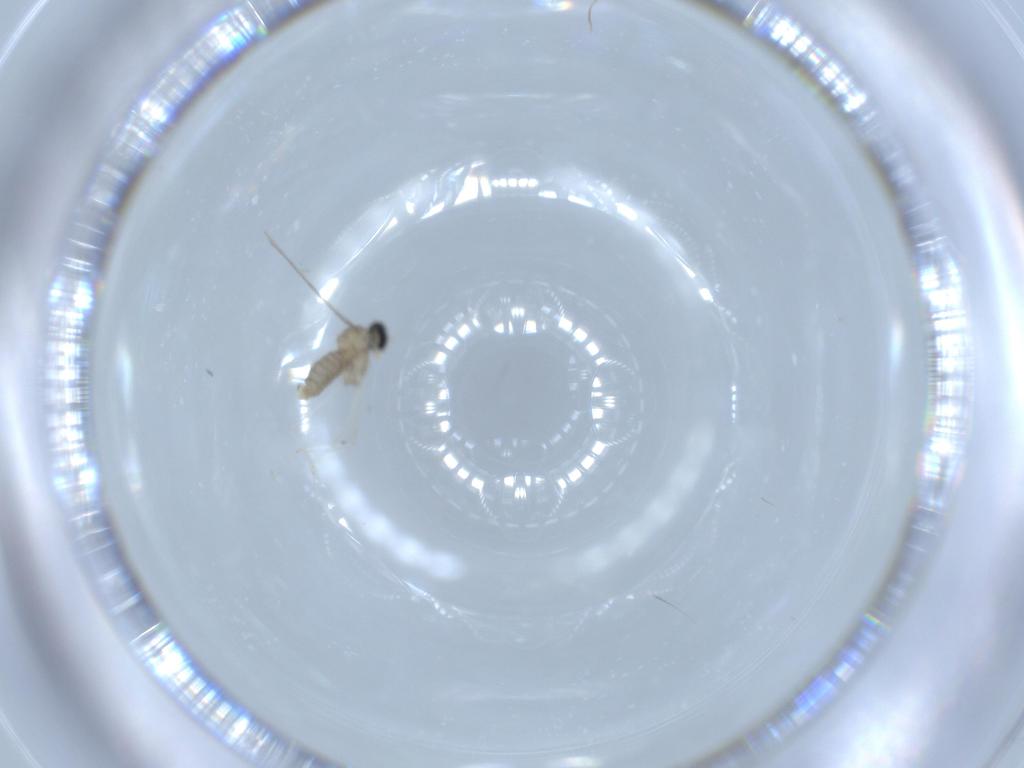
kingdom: Animalia
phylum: Arthropoda
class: Insecta
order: Diptera
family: Cecidomyiidae
